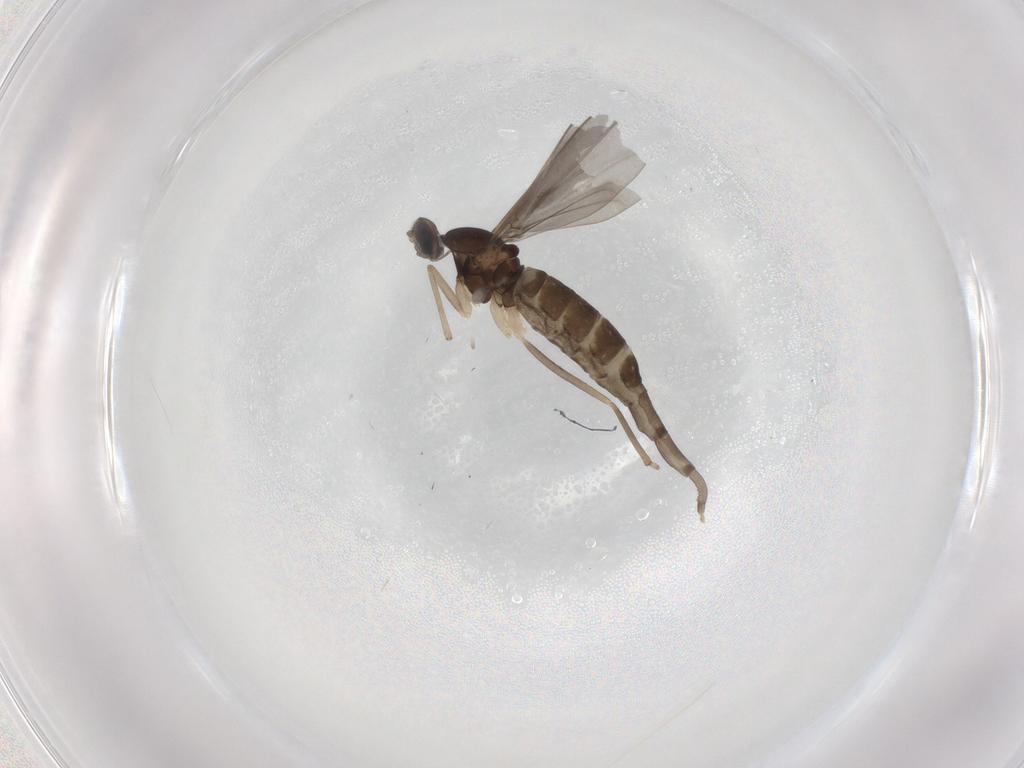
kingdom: Animalia
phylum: Arthropoda
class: Insecta
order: Diptera
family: Cecidomyiidae
